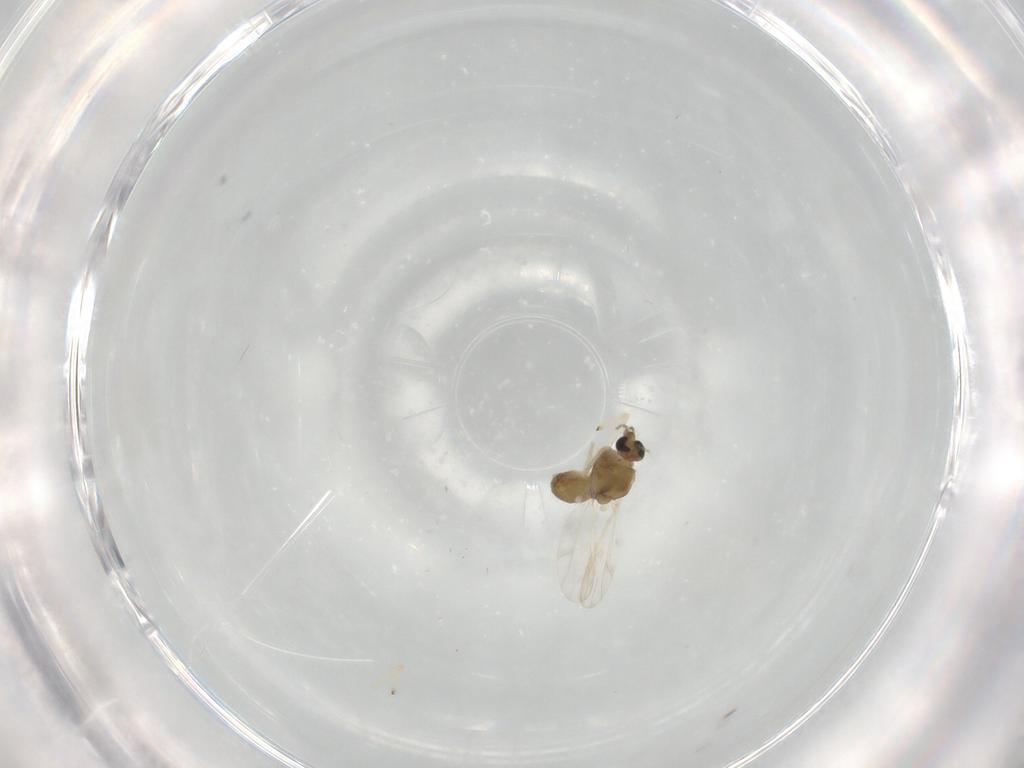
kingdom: Animalia
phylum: Arthropoda
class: Insecta
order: Diptera
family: Chironomidae
